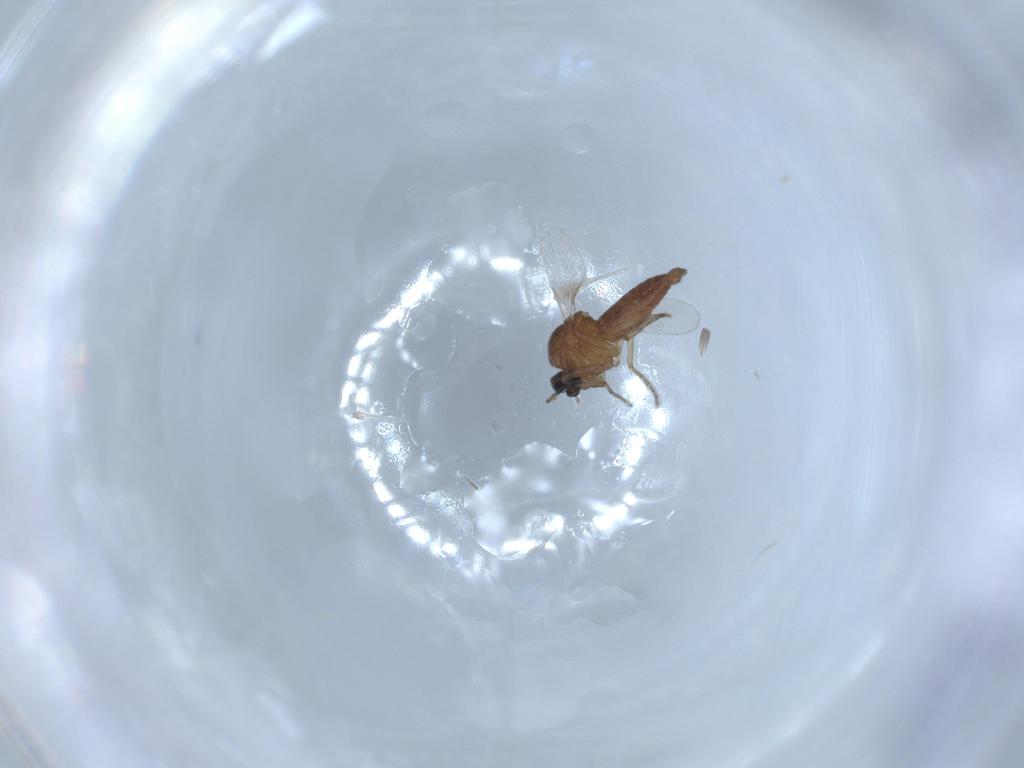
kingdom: Animalia
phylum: Arthropoda
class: Insecta
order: Diptera
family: Ceratopogonidae
